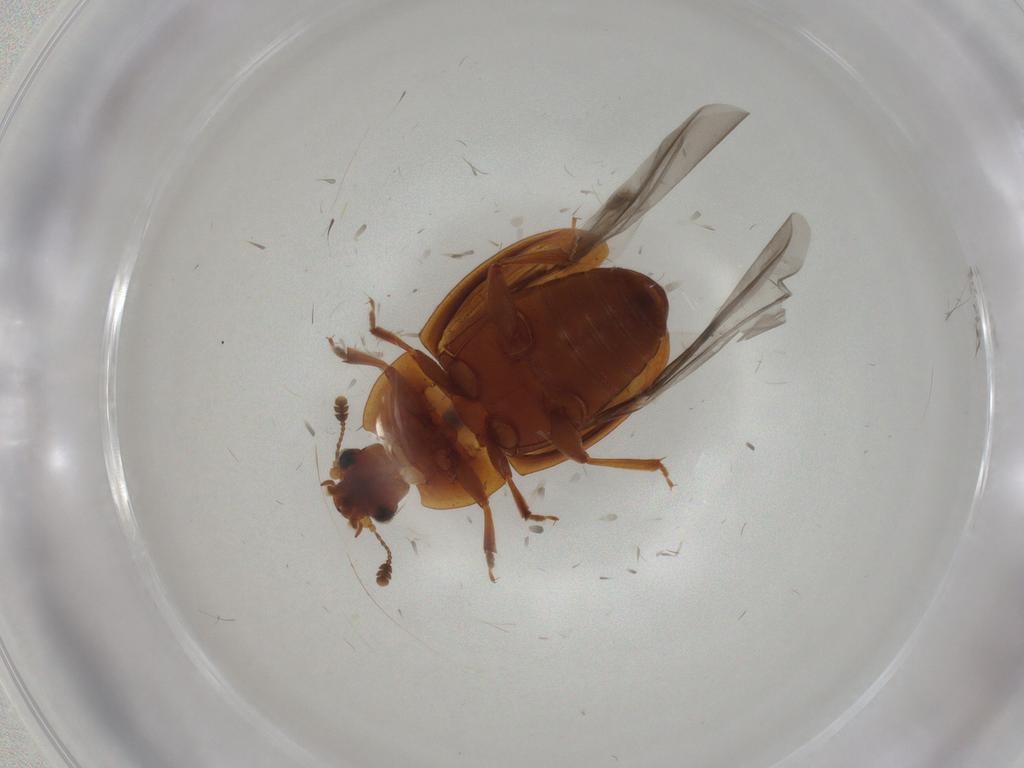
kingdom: Animalia
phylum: Arthropoda
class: Insecta
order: Coleoptera
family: Nitidulidae
